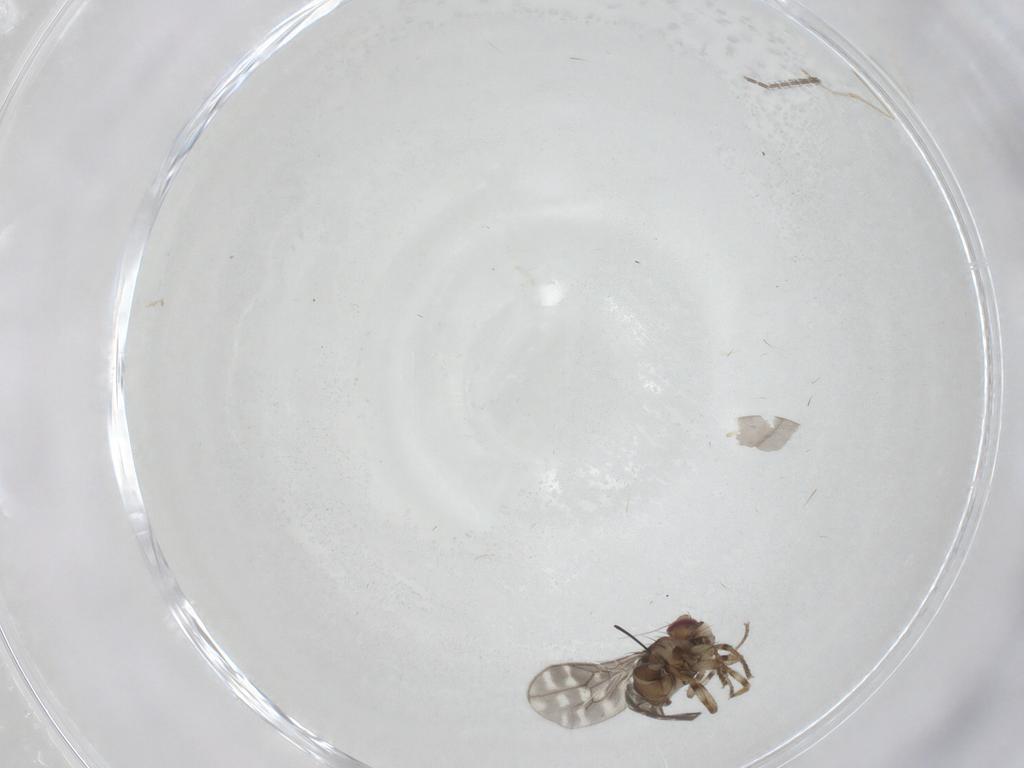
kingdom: Animalia
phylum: Arthropoda
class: Insecta
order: Diptera
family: Sphaeroceridae
